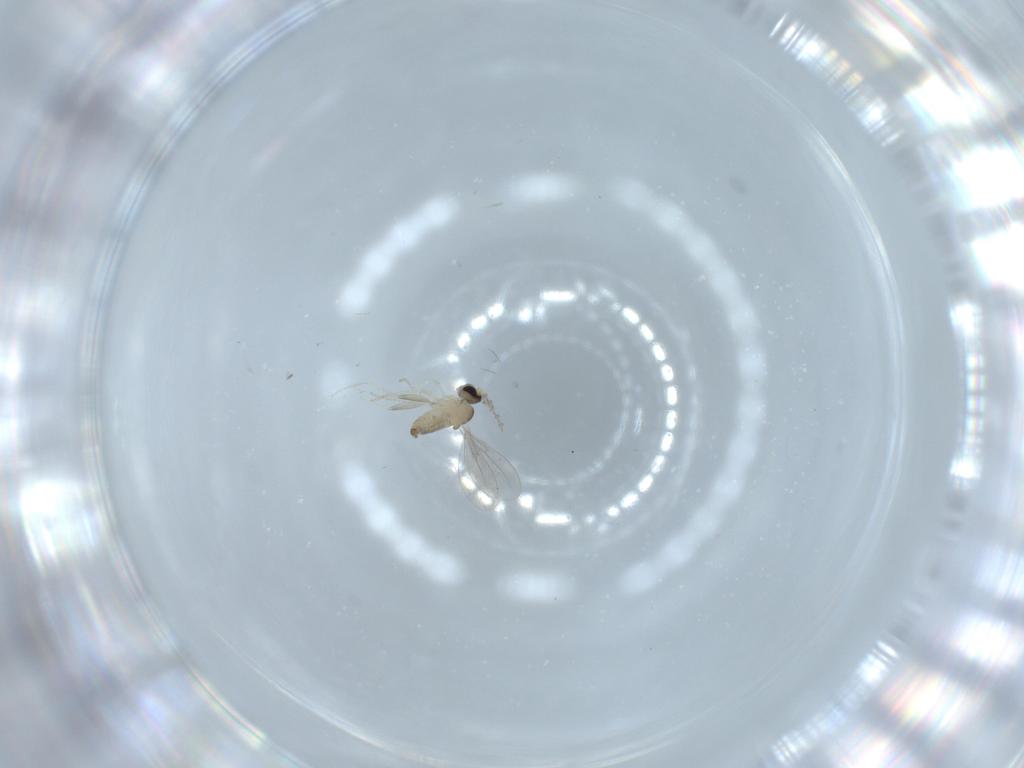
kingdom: Animalia
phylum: Arthropoda
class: Insecta
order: Diptera
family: Cecidomyiidae
